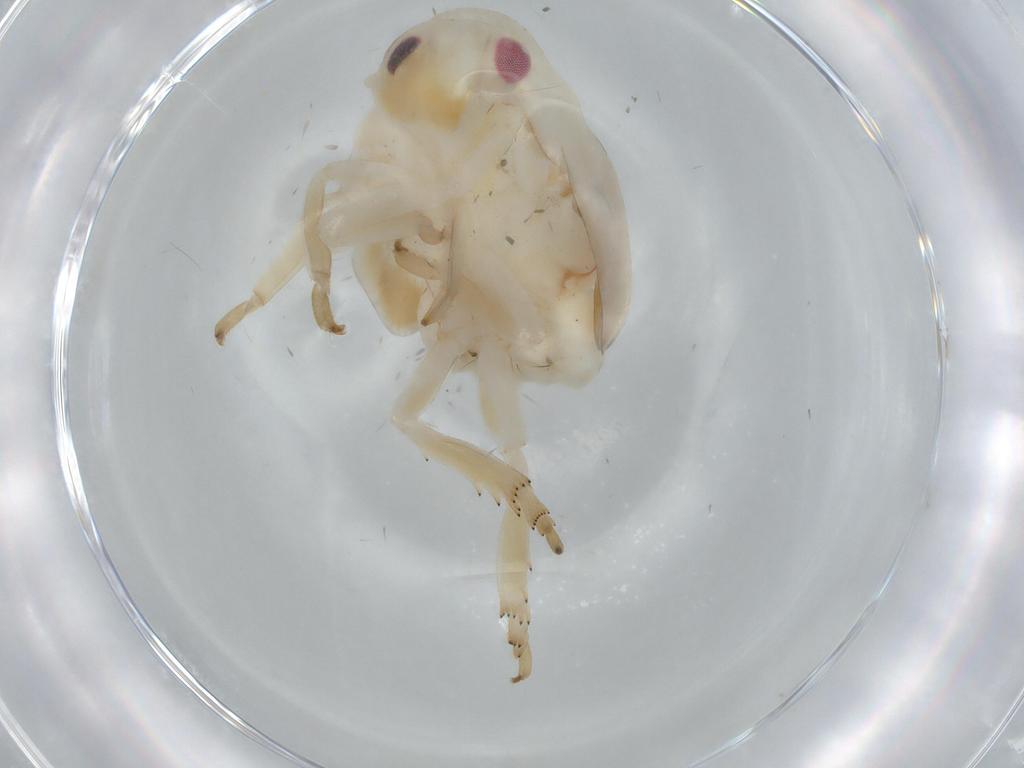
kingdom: Animalia
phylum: Arthropoda
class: Insecta
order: Hemiptera
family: Flatidae
